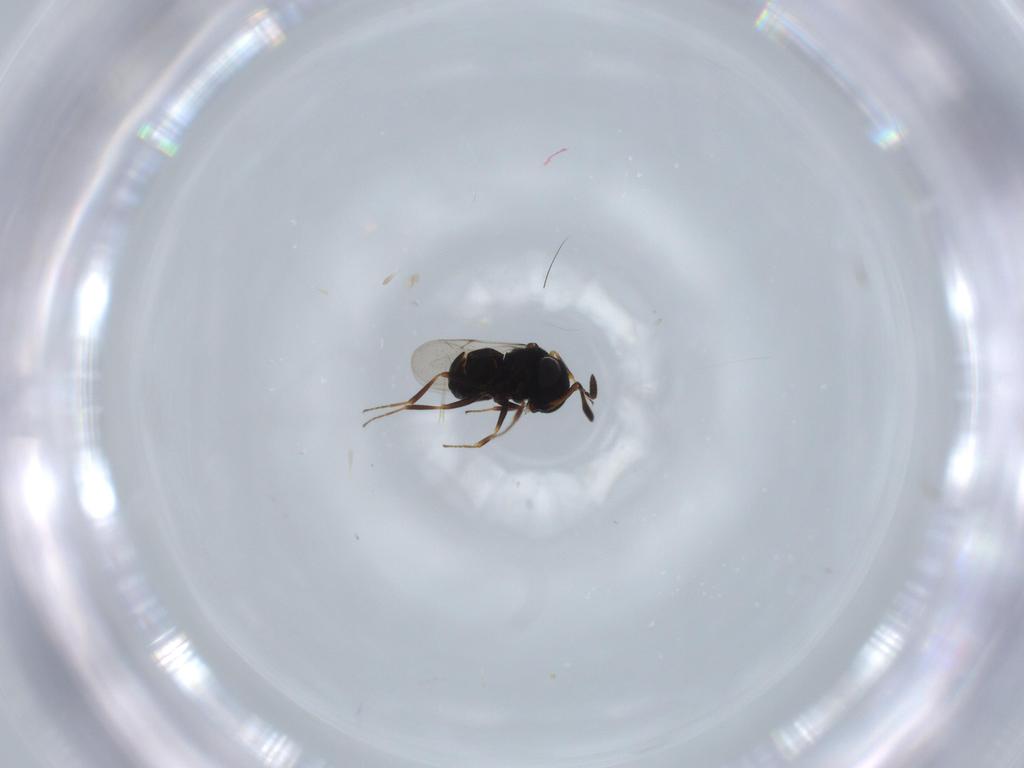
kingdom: Animalia
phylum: Arthropoda
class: Insecta
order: Hymenoptera
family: Scelionidae
